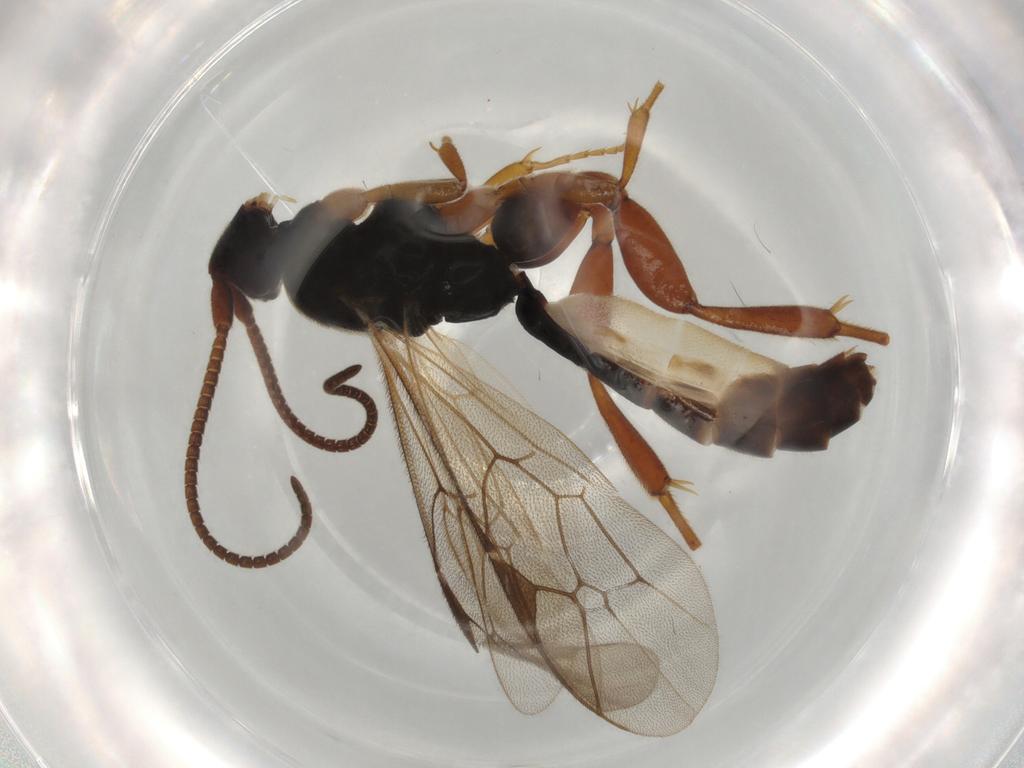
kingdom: Animalia
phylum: Arthropoda
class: Insecta
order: Hymenoptera
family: Ichneumonidae
